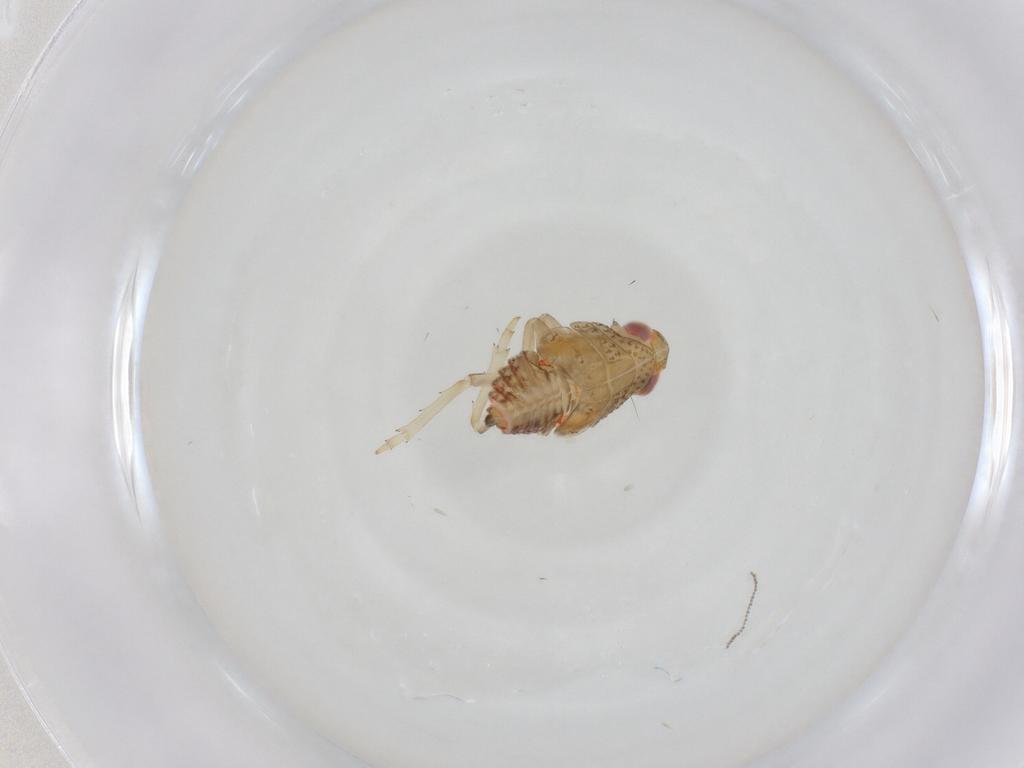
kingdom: Animalia
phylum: Arthropoda
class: Insecta
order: Hemiptera
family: Issidae
